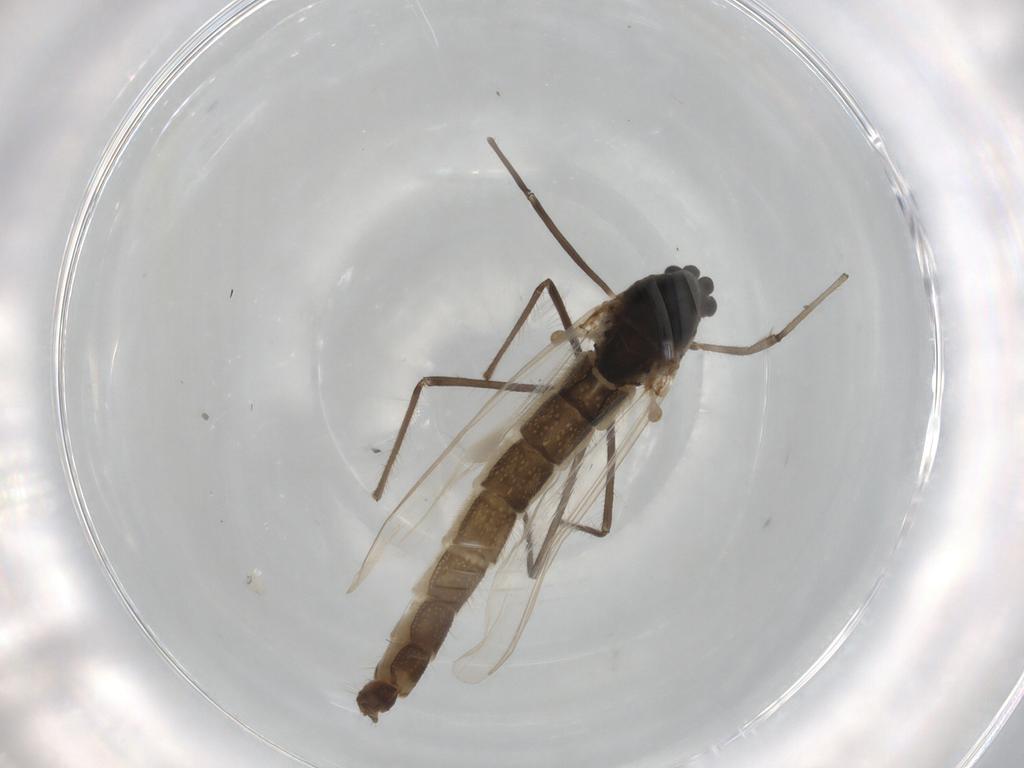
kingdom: Animalia
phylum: Arthropoda
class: Insecta
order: Diptera
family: Chironomidae
